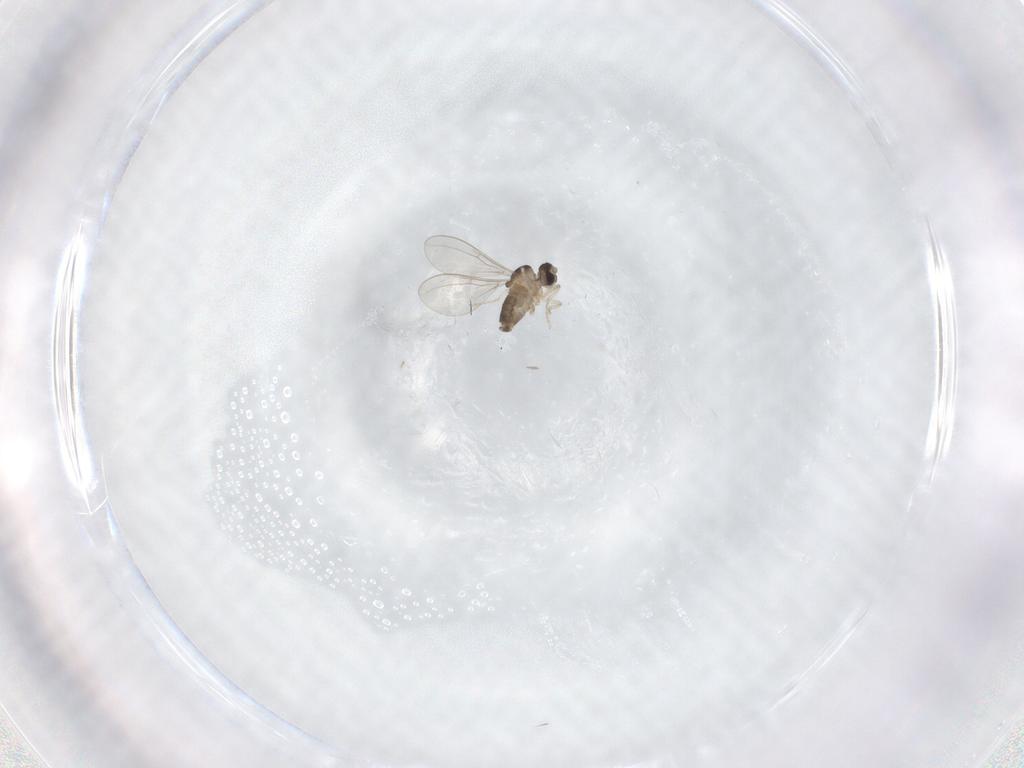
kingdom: Animalia
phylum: Arthropoda
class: Insecta
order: Diptera
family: Cecidomyiidae
